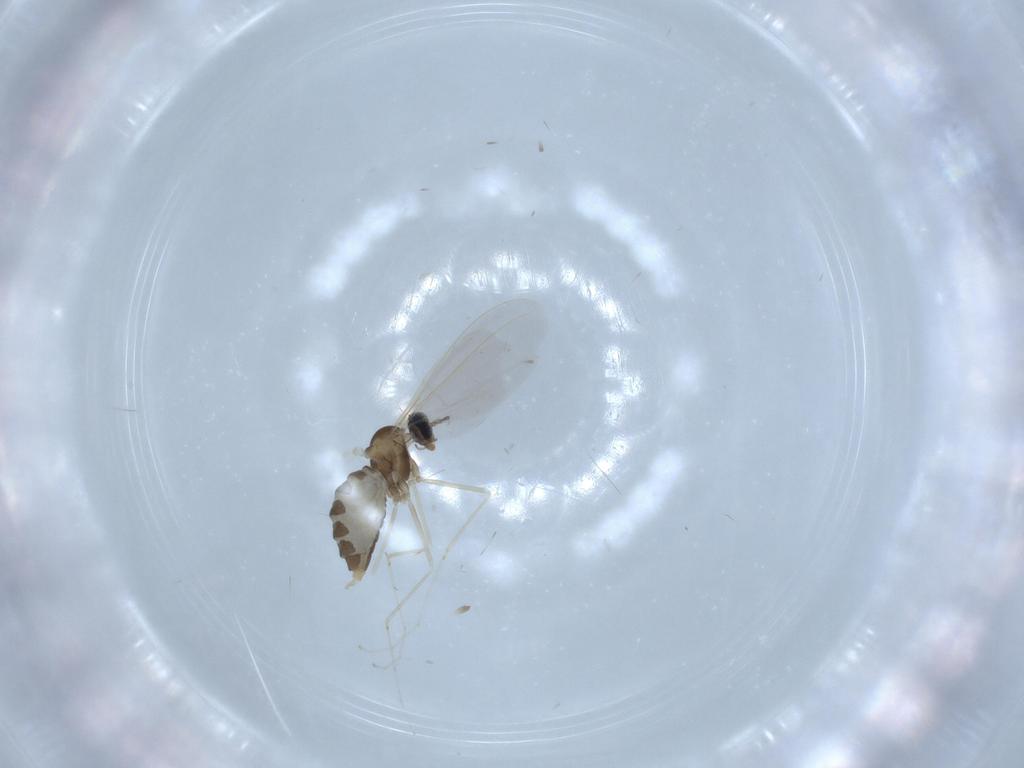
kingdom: Animalia
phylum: Arthropoda
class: Insecta
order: Diptera
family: Cecidomyiidae
